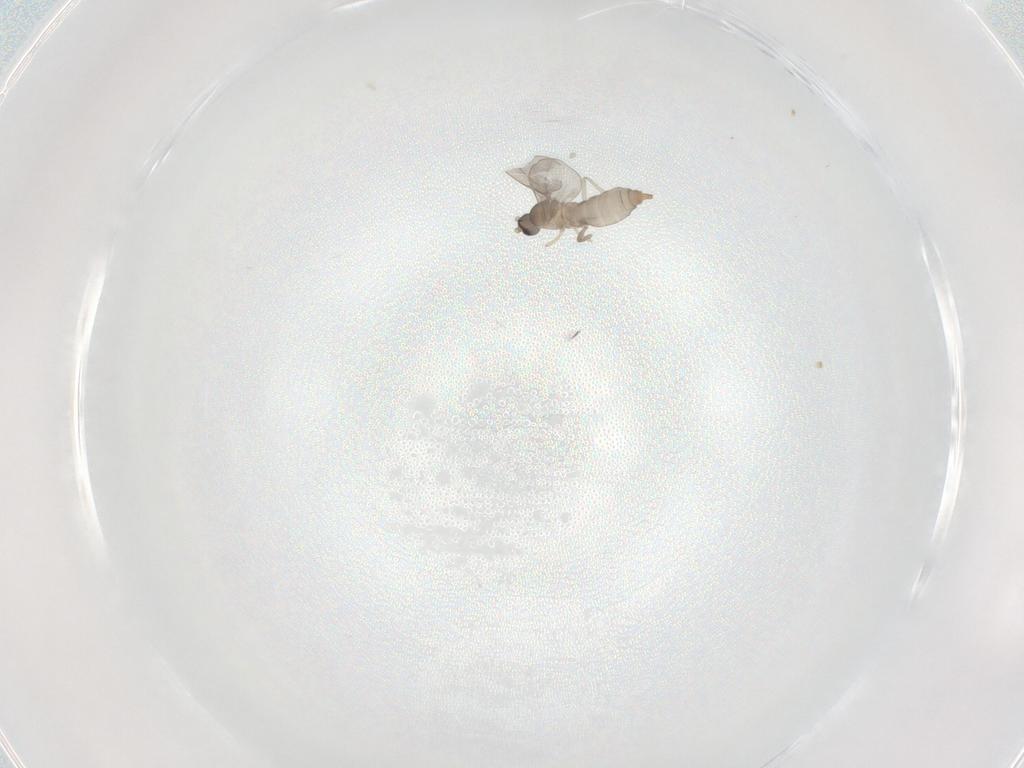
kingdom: Animalia
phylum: Arthropoda
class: Insecta
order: Diptera
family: Cecidomyiidae
